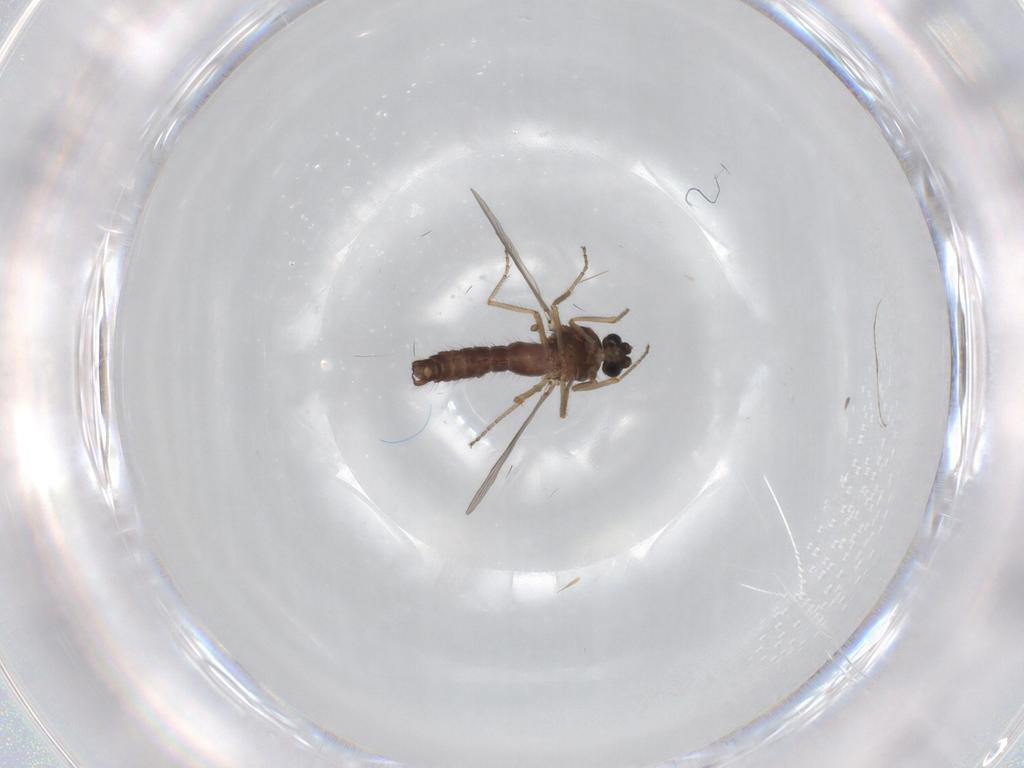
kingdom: Animalia
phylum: Arthropoda
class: Insecta
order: Diptera
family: Ceratopogonidae
